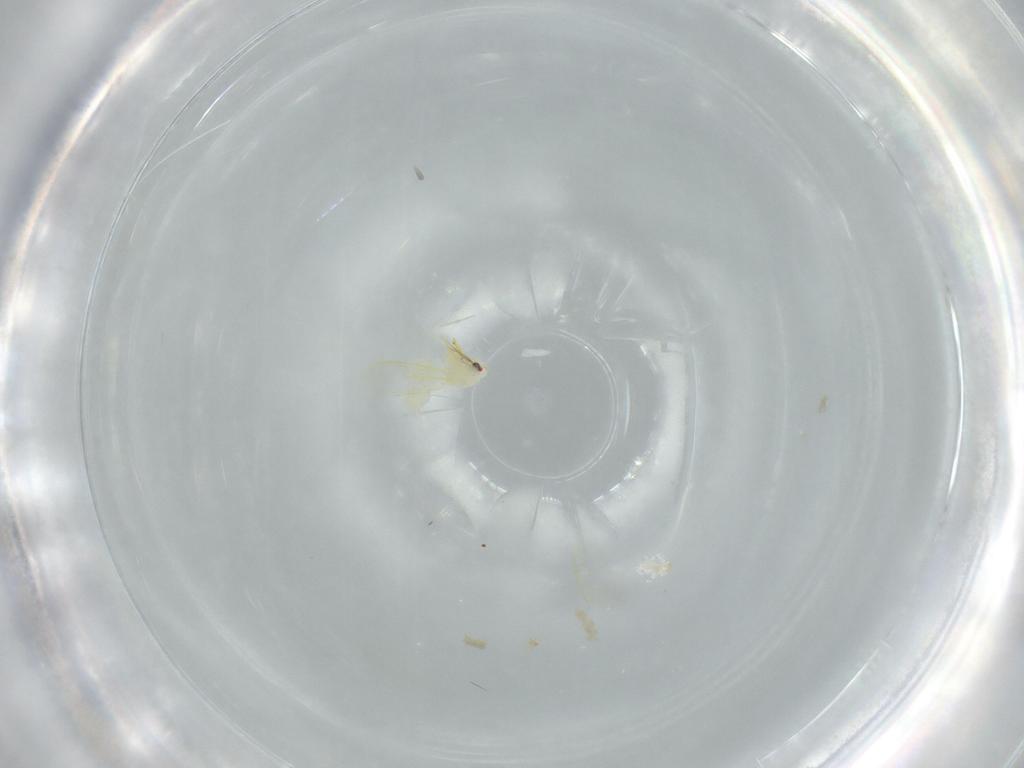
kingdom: Animalia
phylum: Arthropoda
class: Insecta
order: Hemiptera
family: Aleyrodidae
